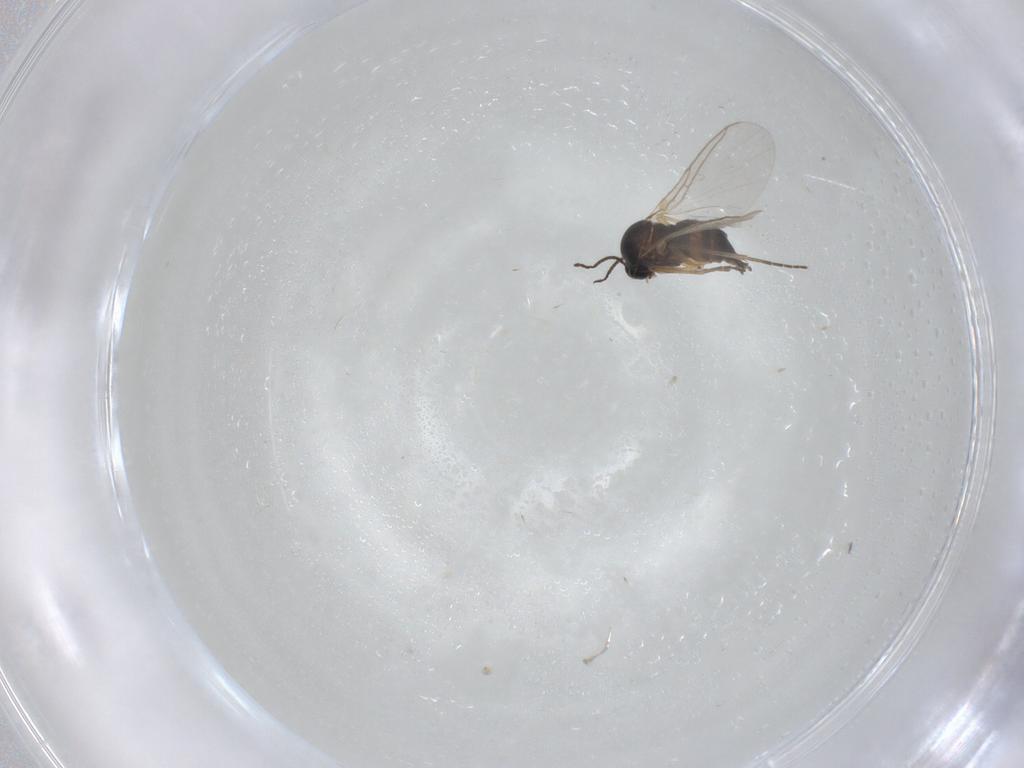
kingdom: Animalia
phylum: Arthropoda
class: Insecta
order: Diptera
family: Sciaridae
